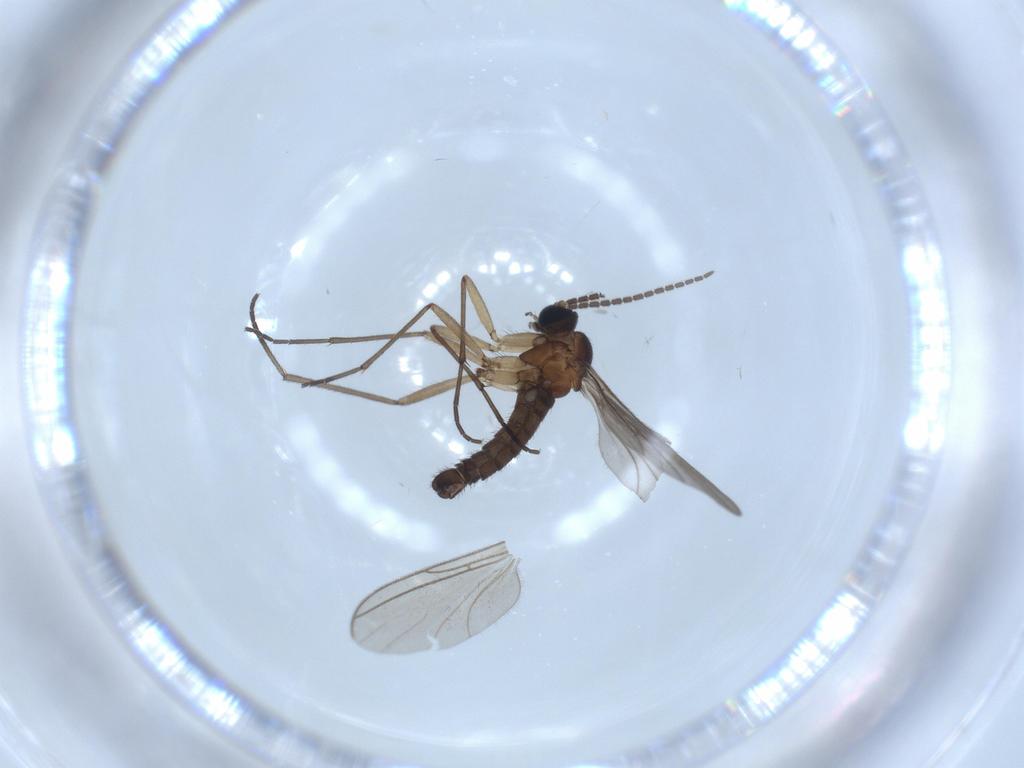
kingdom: Animalia
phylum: Arthropoda
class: Insecta
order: Diptera
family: Sciaridae
